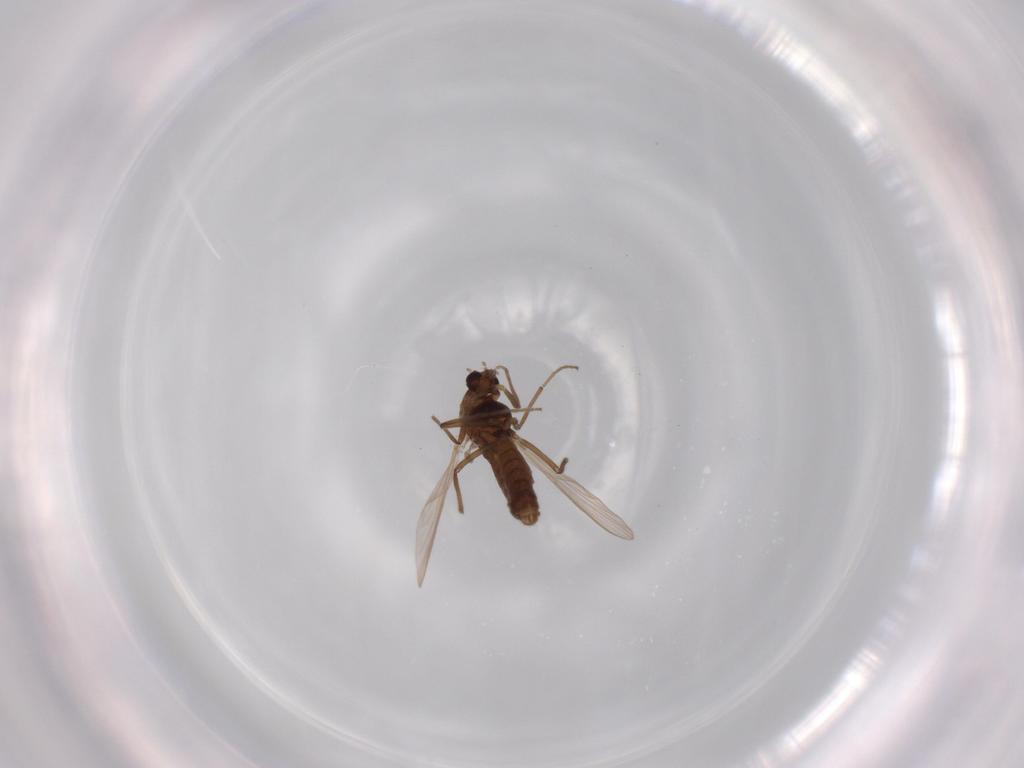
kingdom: Animalia
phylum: Arthropoda
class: Insecta
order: Diptera
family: Chironomidae
